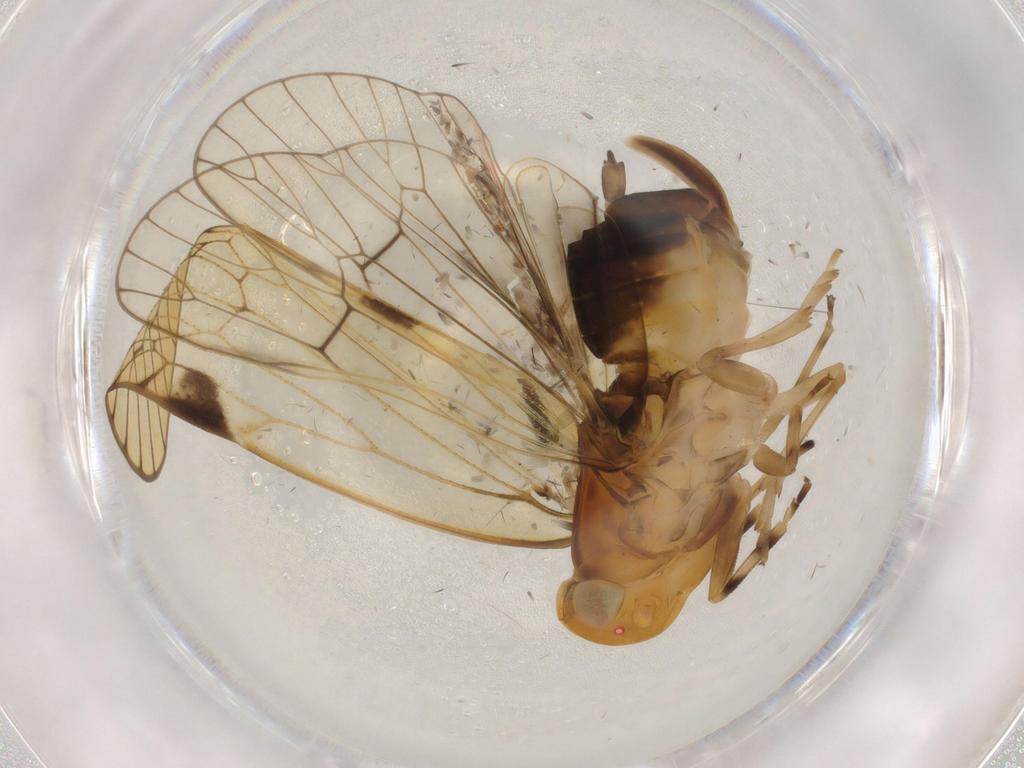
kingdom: Animalia
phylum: Arthropoda
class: Insecta
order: Hemiptera
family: Cixiidae
